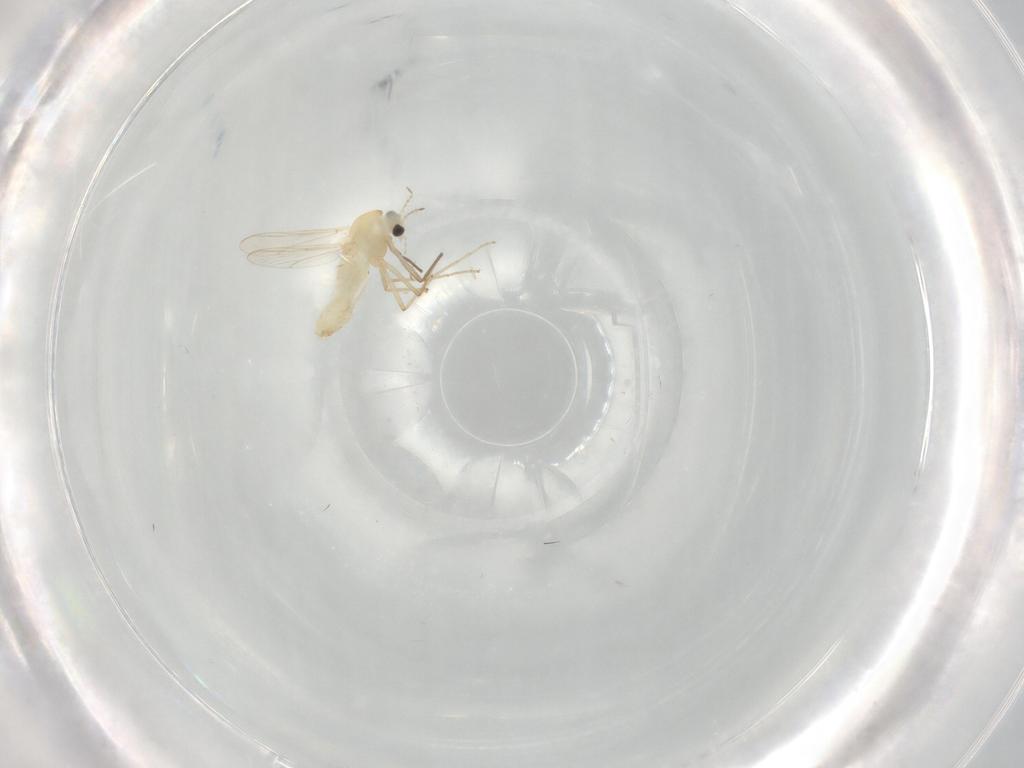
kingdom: Animalia
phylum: Arthropoda
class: Insecta
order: Diptera
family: Chironomidae
